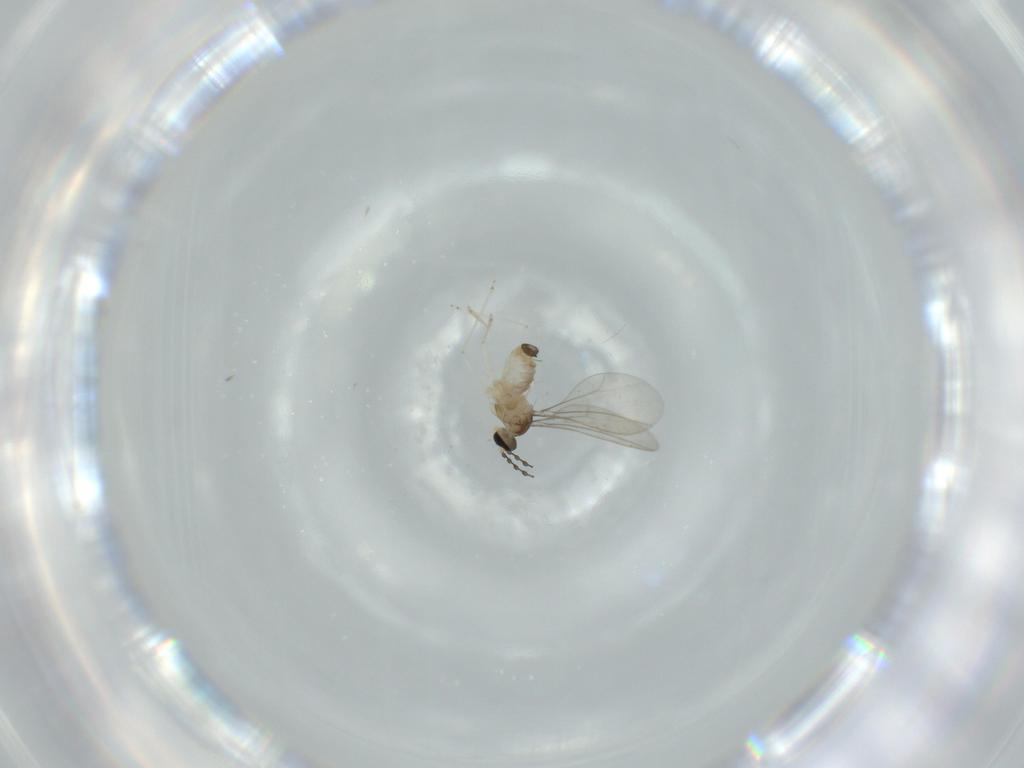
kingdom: Animalia
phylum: Arthropoda
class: Insecta
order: Diptera
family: Cecidomyiidae
